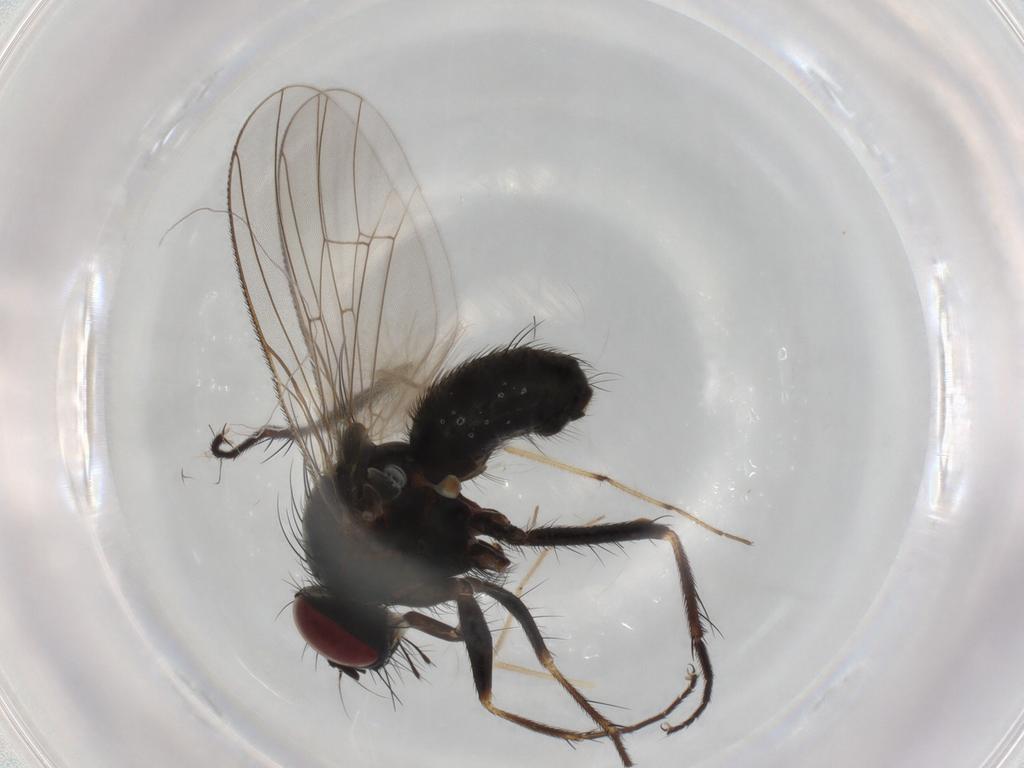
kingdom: Animalia
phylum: Arthropoda
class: Insecta
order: Diptera
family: Muscidae
